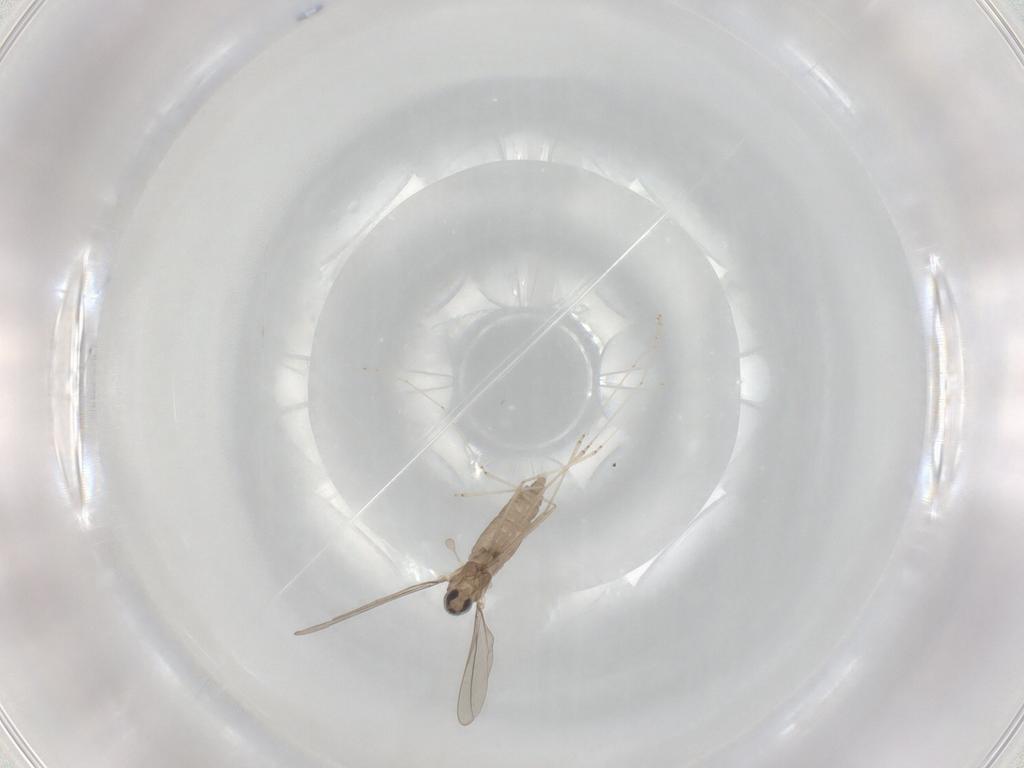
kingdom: Animalia
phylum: Arthropoda
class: Insecta
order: Diptera
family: Cecidomyiidae
